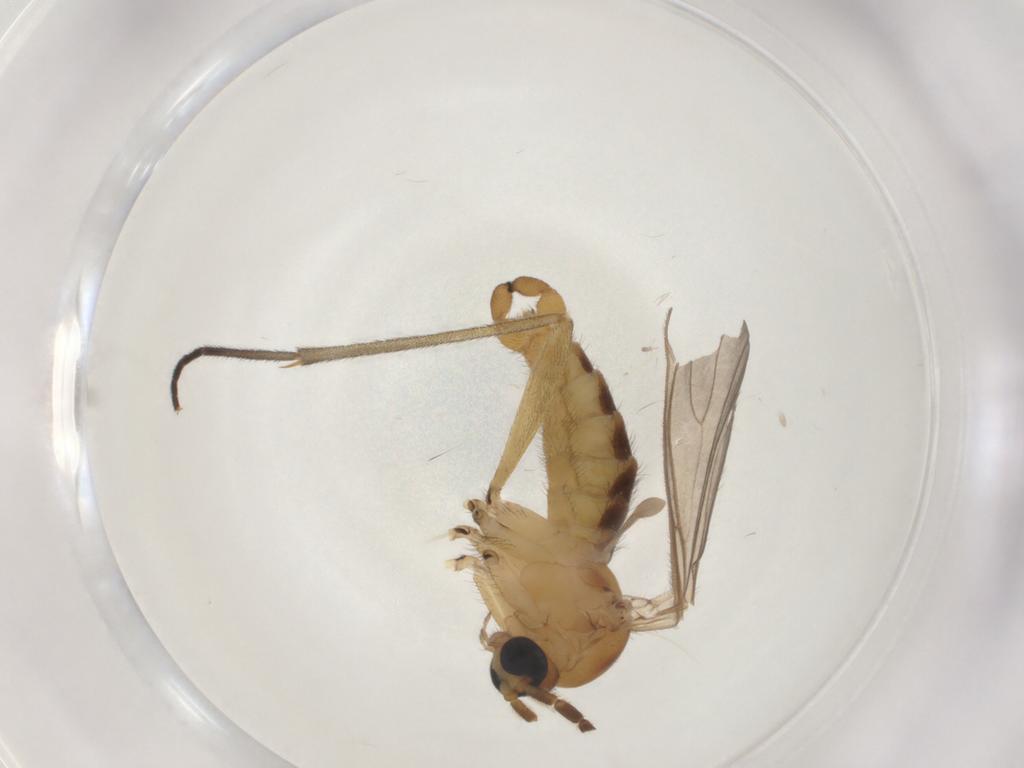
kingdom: Animalia
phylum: Arthropoda
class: Insecta
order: Diptera
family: Sciaridae
